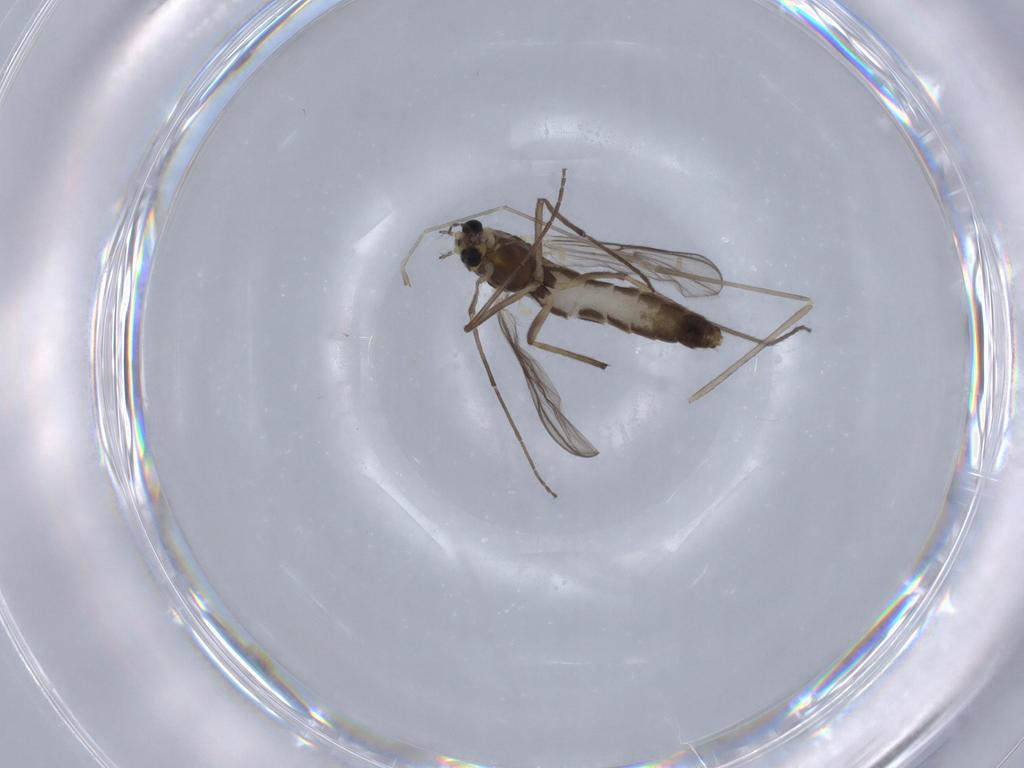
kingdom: Animalia
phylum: Arthropoda
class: Insecta
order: Diptera
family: Chironomidae
